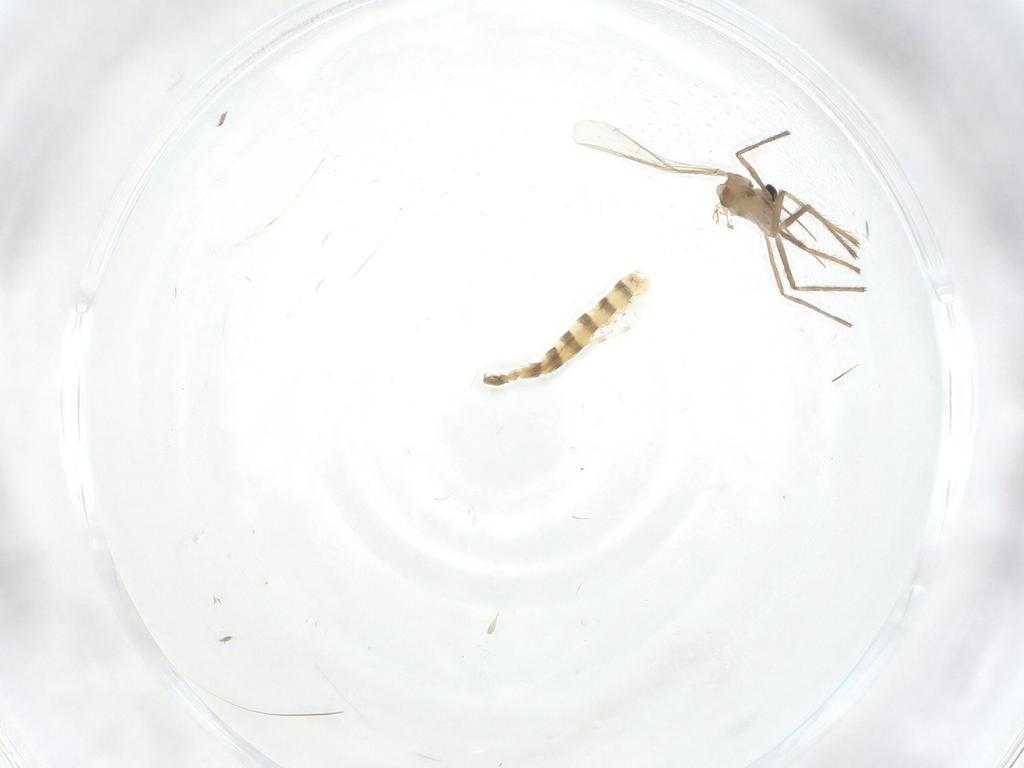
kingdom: Animalia
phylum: Arthropoda
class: Insecta
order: Diptera
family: Chironomidae
